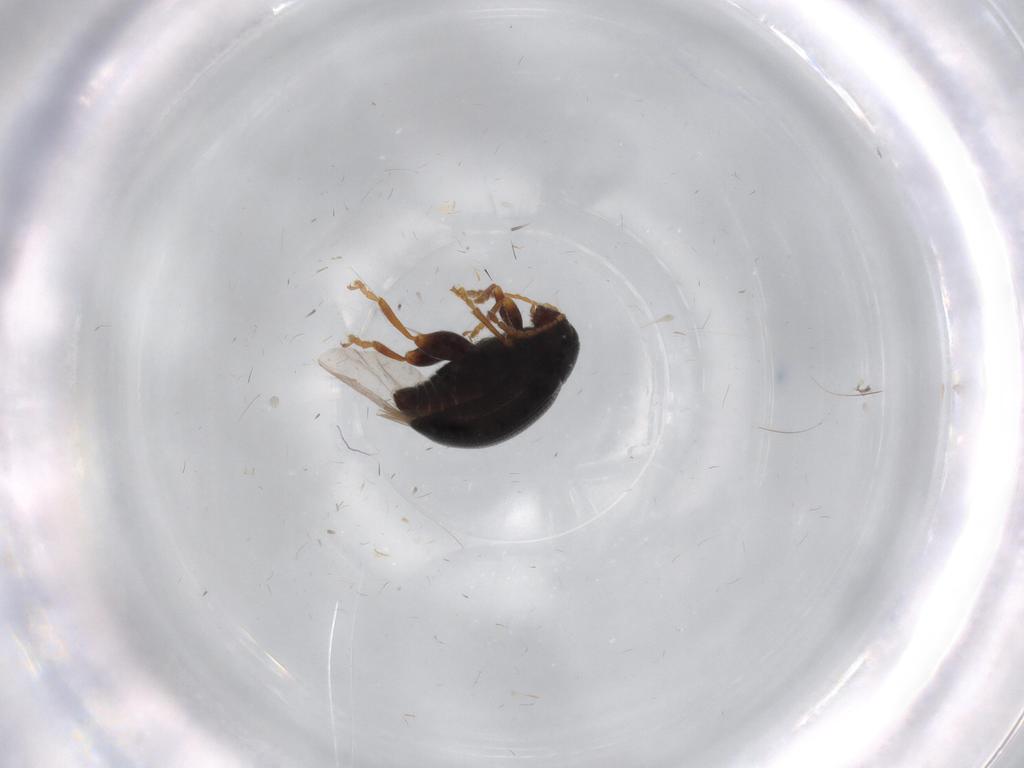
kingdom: Animalia
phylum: Arthropoda
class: Insecta
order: Coleoptera
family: Chrysomelidae
